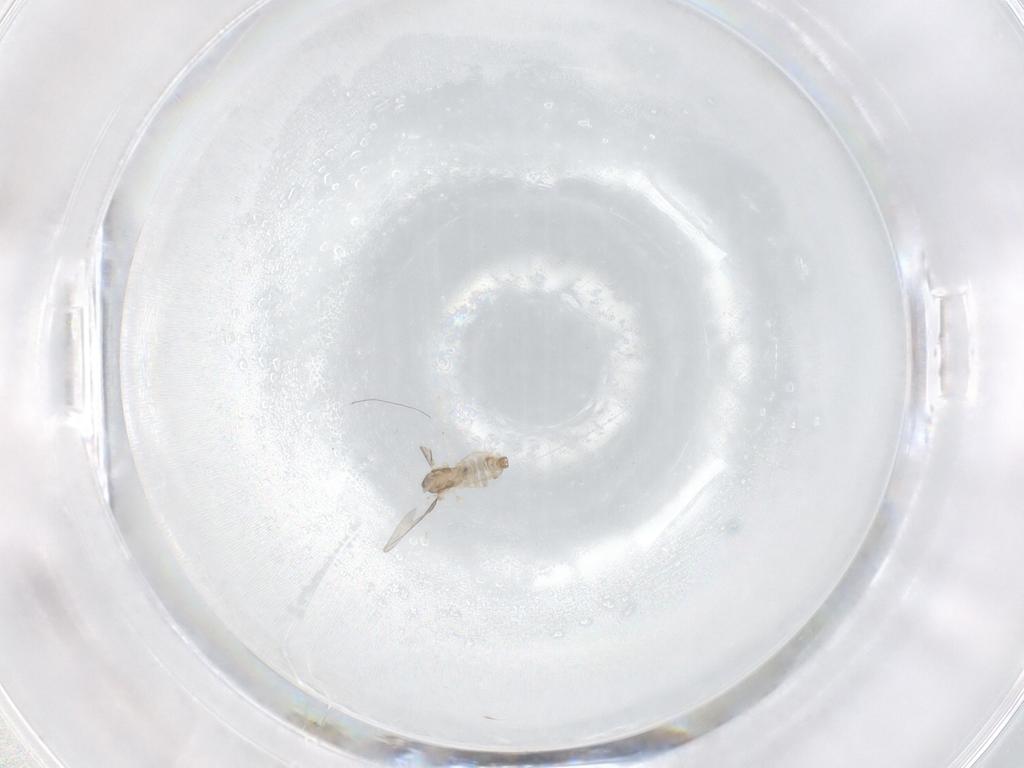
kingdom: Animalia
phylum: Arthropoda
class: Insecta
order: Diptera
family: Cecidomyiidae
